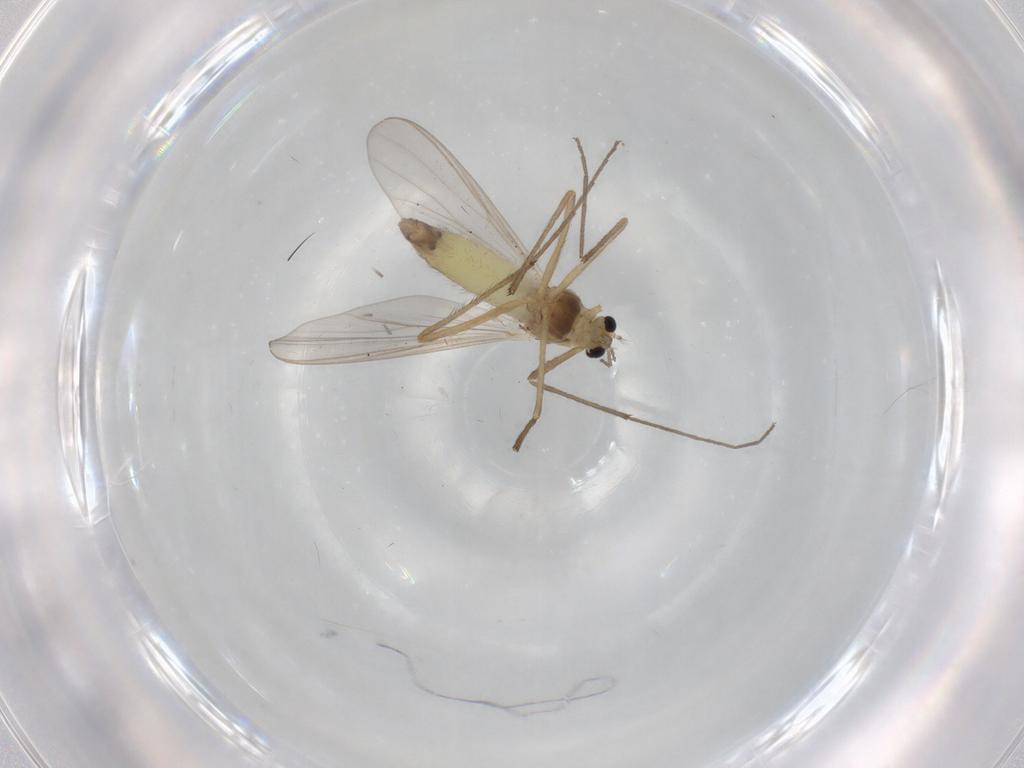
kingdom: Animalia
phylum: Arthropoda
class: Insecta
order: Diptera
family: Chironomidae
